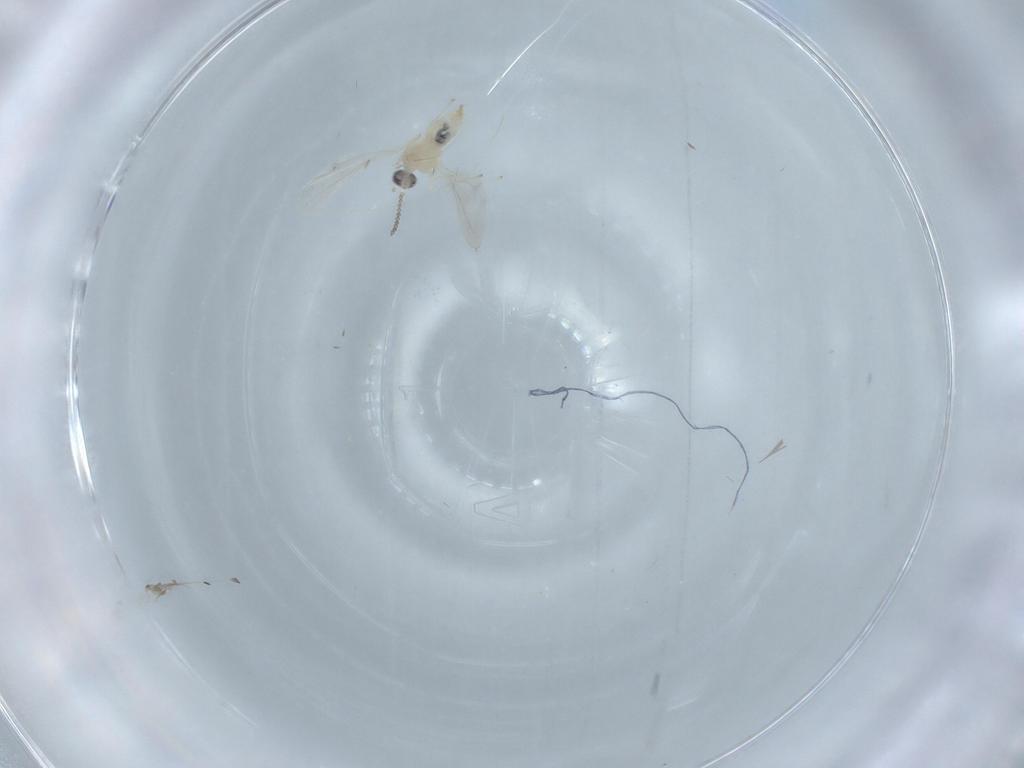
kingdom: Animalia
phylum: Arthropoda
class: Insecta
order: Diptera
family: Cecidomyiidae
